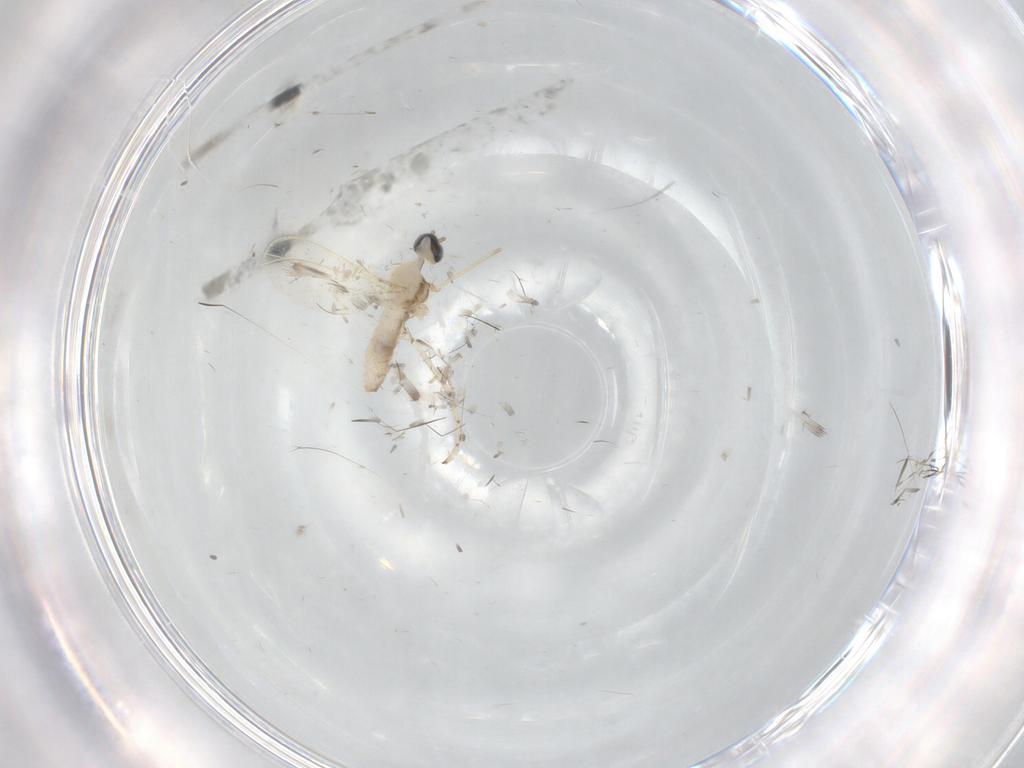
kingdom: Animalia
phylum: Arthropoda
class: Insecta
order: Diptera
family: Cecidomyiidae
